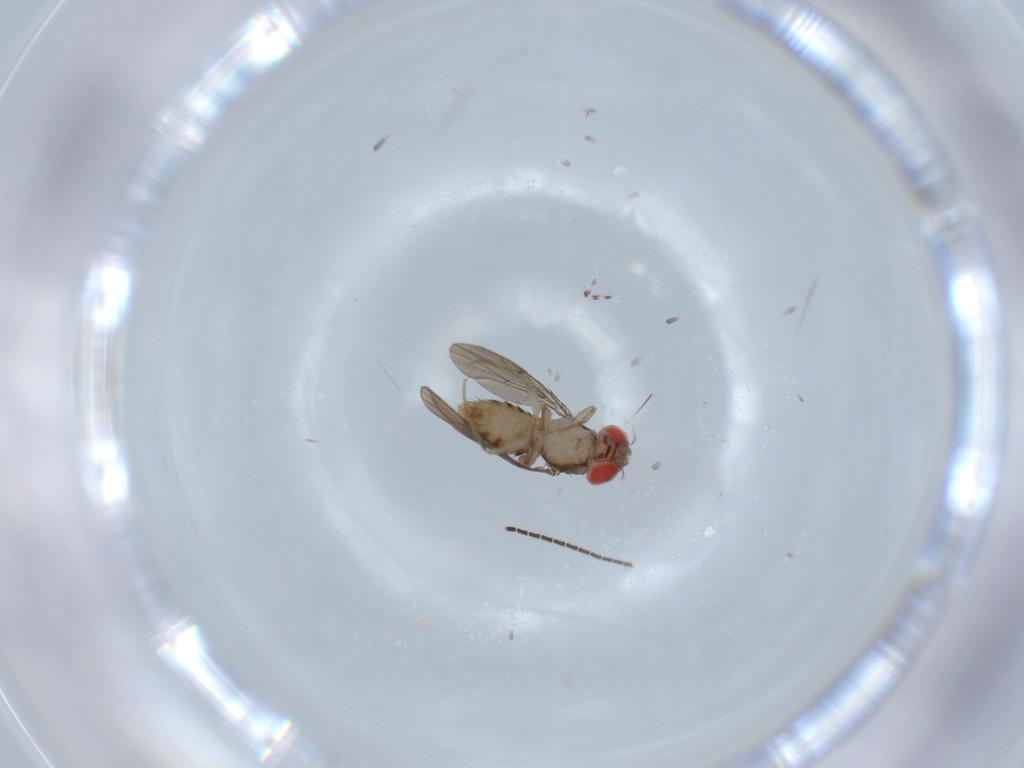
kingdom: Animalia
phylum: Arthropoda
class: Insecta
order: Diptera
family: Drosophilidae
